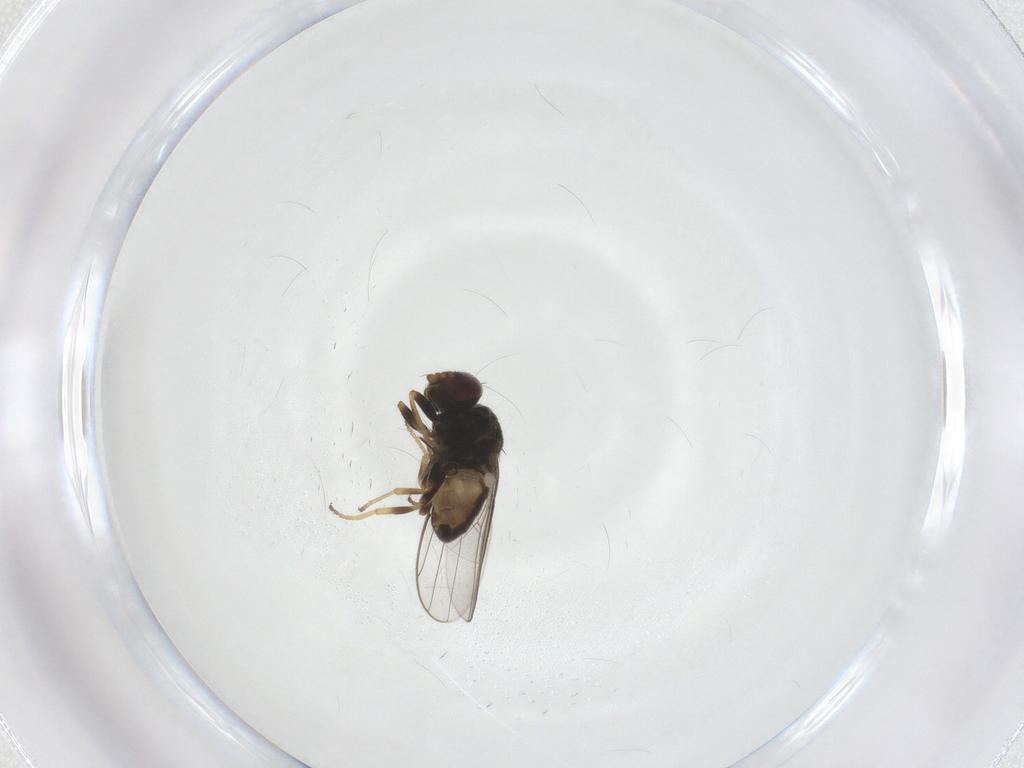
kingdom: Animalia
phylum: Arthropoda
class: Insecta
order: Diptera
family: Chloropidae
